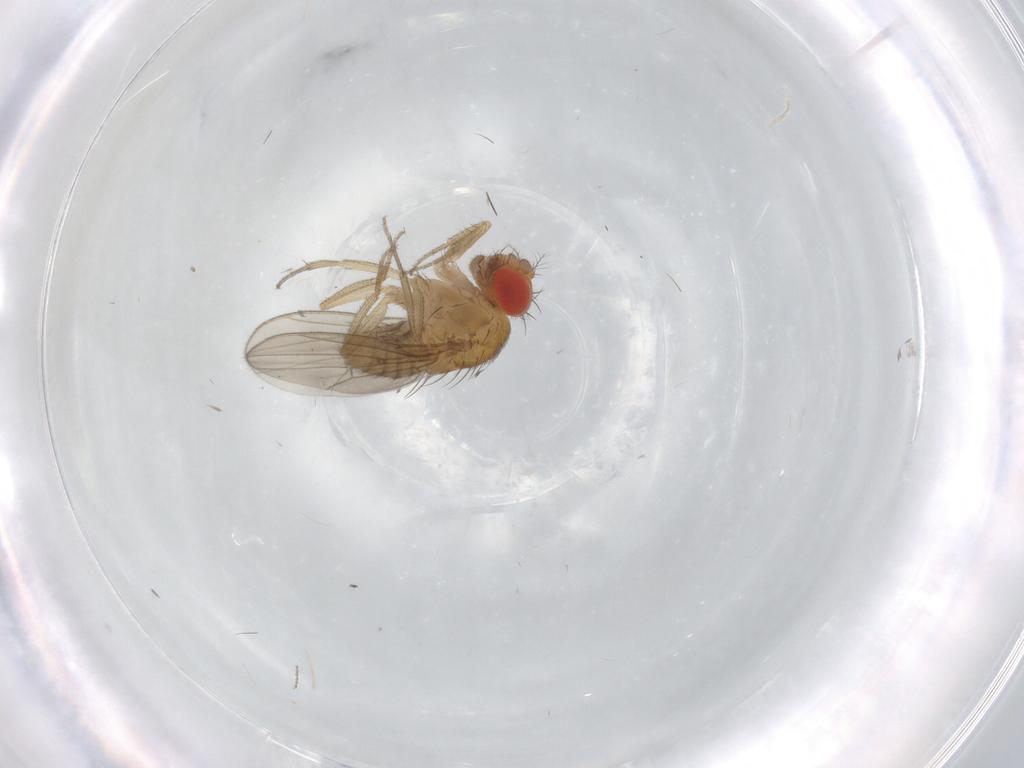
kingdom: Animalia
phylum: Arthropoda
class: Insecta
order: Diptera
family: Drosophilidae
